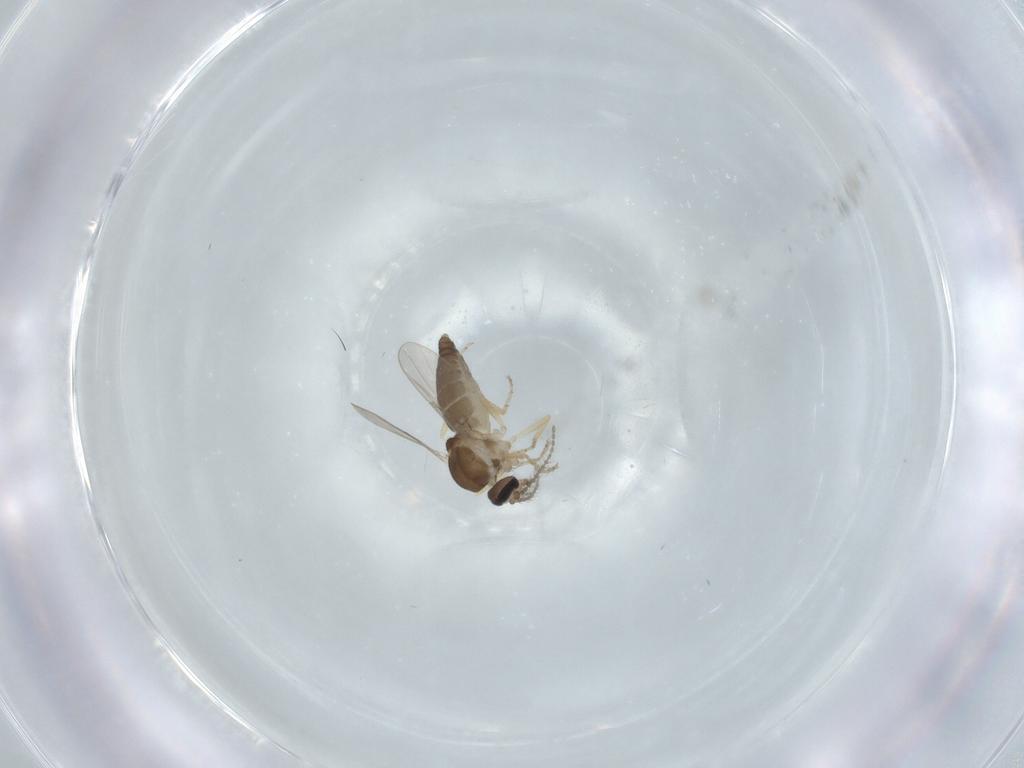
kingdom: Animalia
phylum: Arthropoda
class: Insecta
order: Diptera
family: Ceratopogonidae
